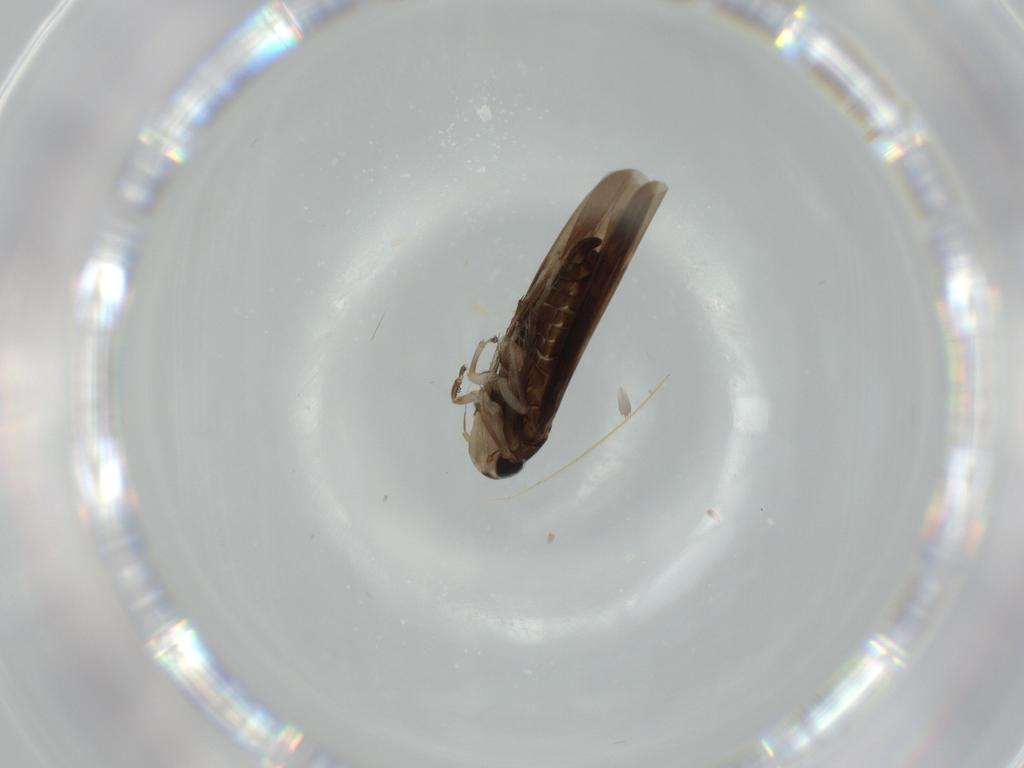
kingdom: Animalia
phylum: Arthropoda
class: Insecta
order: Hemiptera
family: Cicadellidae
